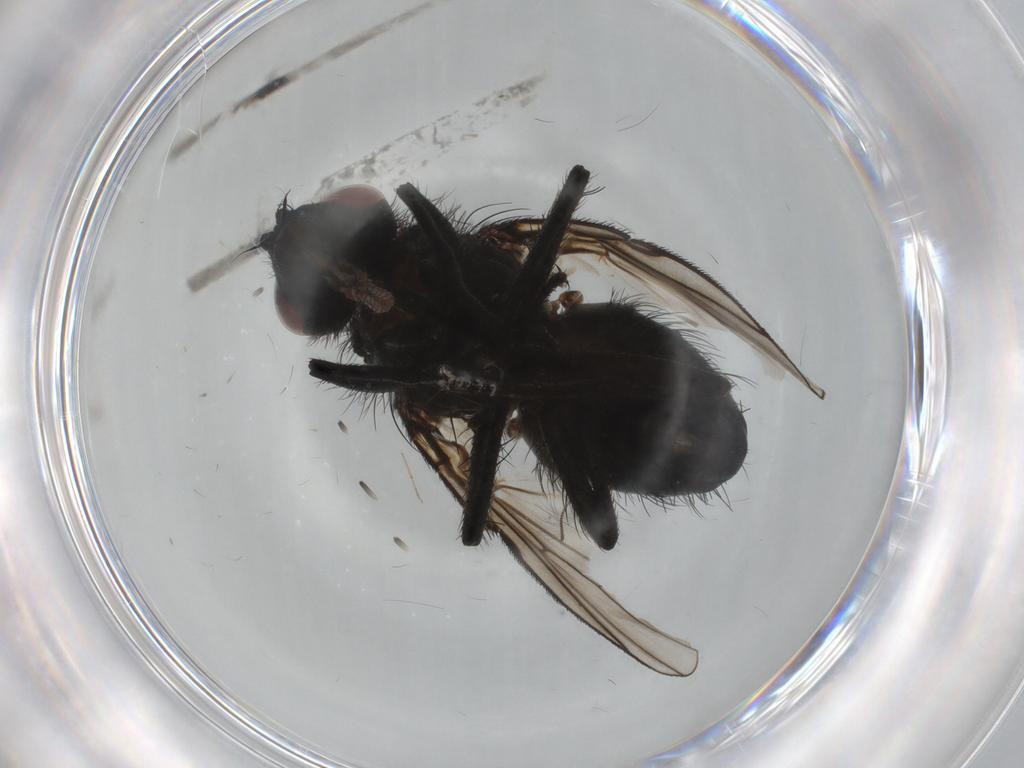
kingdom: Animalia
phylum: Arthropoda
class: Insecta
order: Diptera
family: Muscidae
